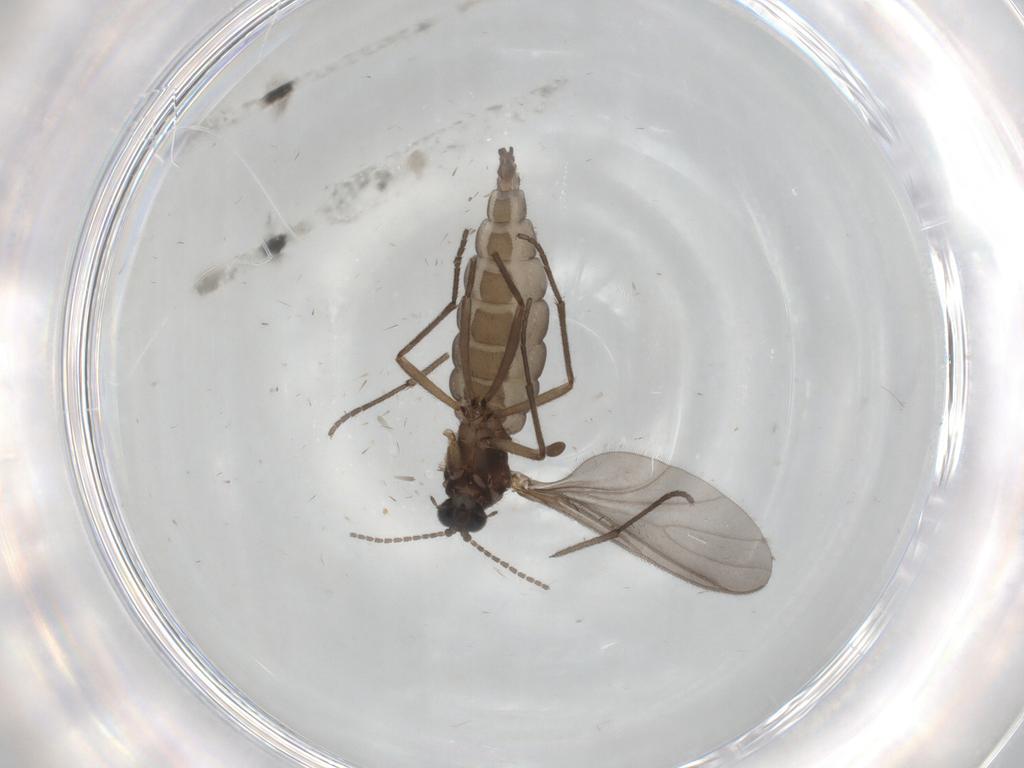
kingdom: Animalia
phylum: Arthropoda
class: Insecta
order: Diptera
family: Sciaridae
